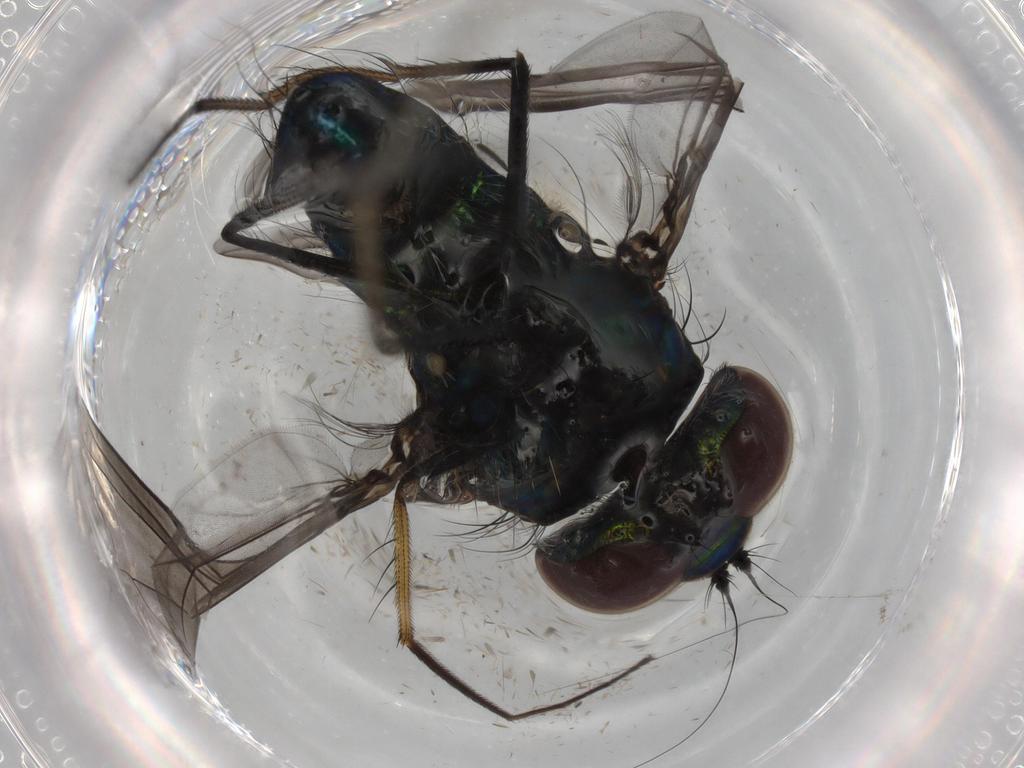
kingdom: Animalia
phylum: Arthropoda
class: Insecta
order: Diptera
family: Dolichopodidae
